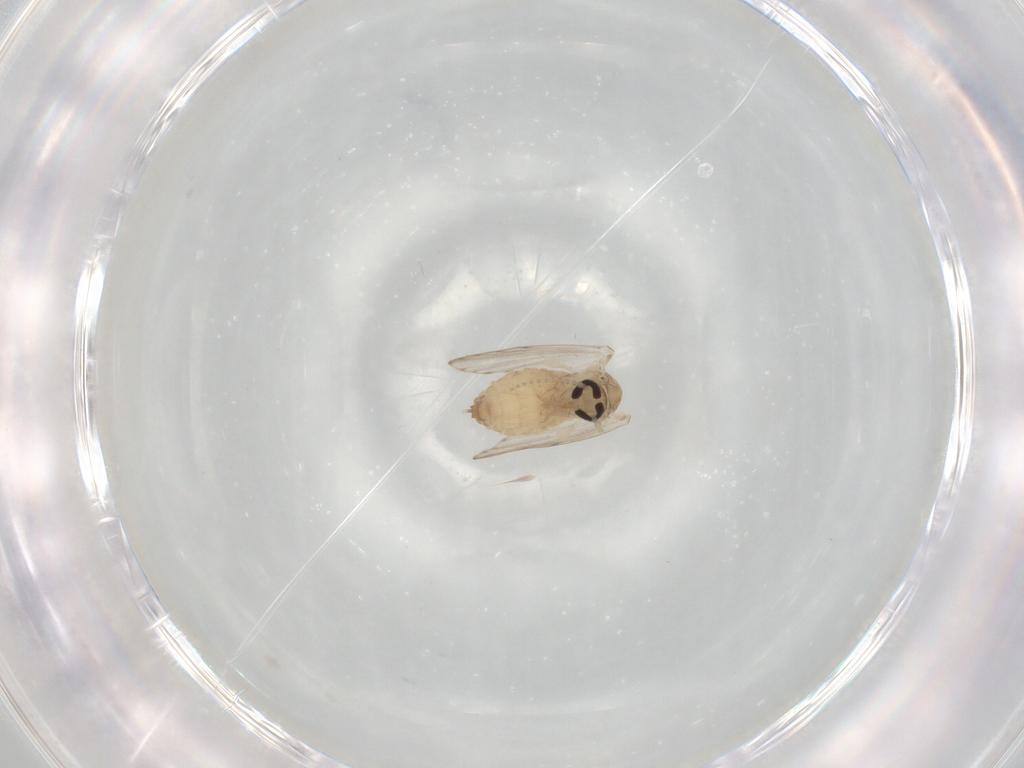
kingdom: Animalia
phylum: Arthropoda
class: Insecta
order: Diptera
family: Psychodidae
